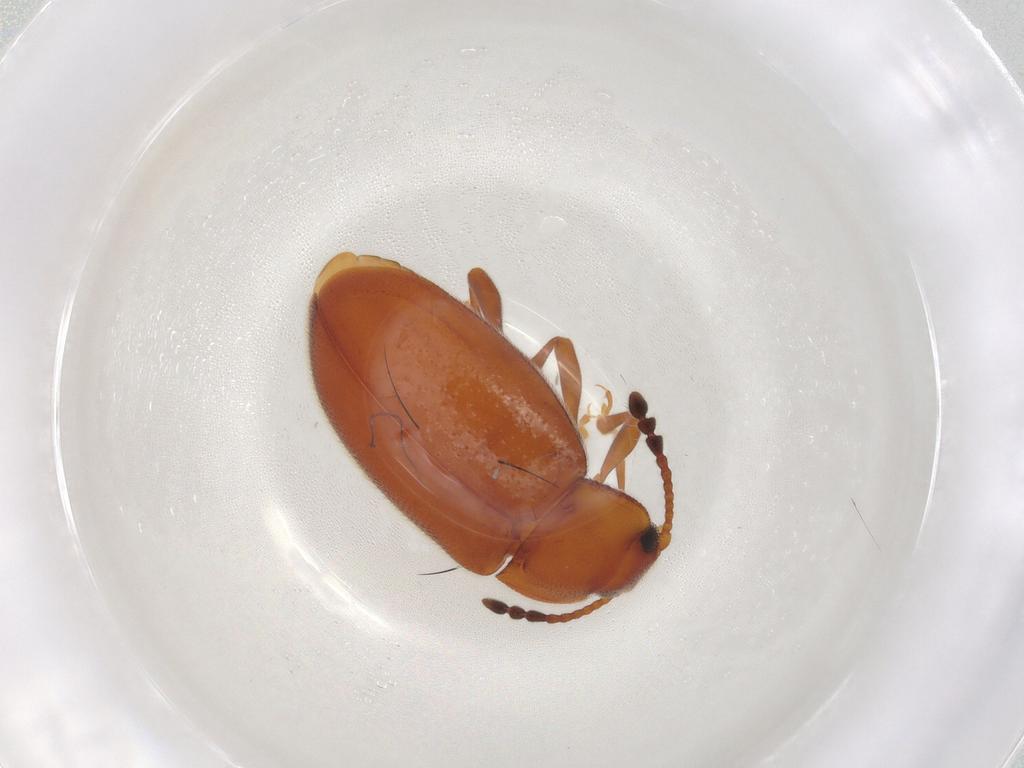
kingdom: Animalia
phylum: Arthropoda
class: Insecta
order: Coleoptera
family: Endomychidae
